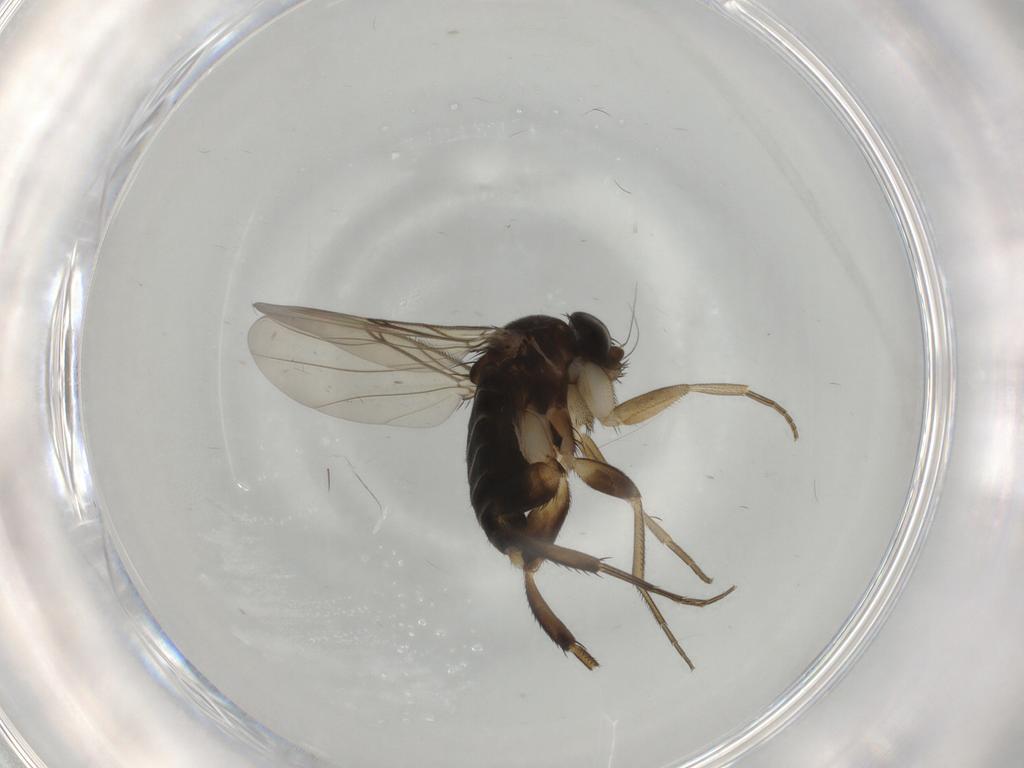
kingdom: Animalia
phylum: Arthropoda
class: Insecta
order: Diptera
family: Phoridae
